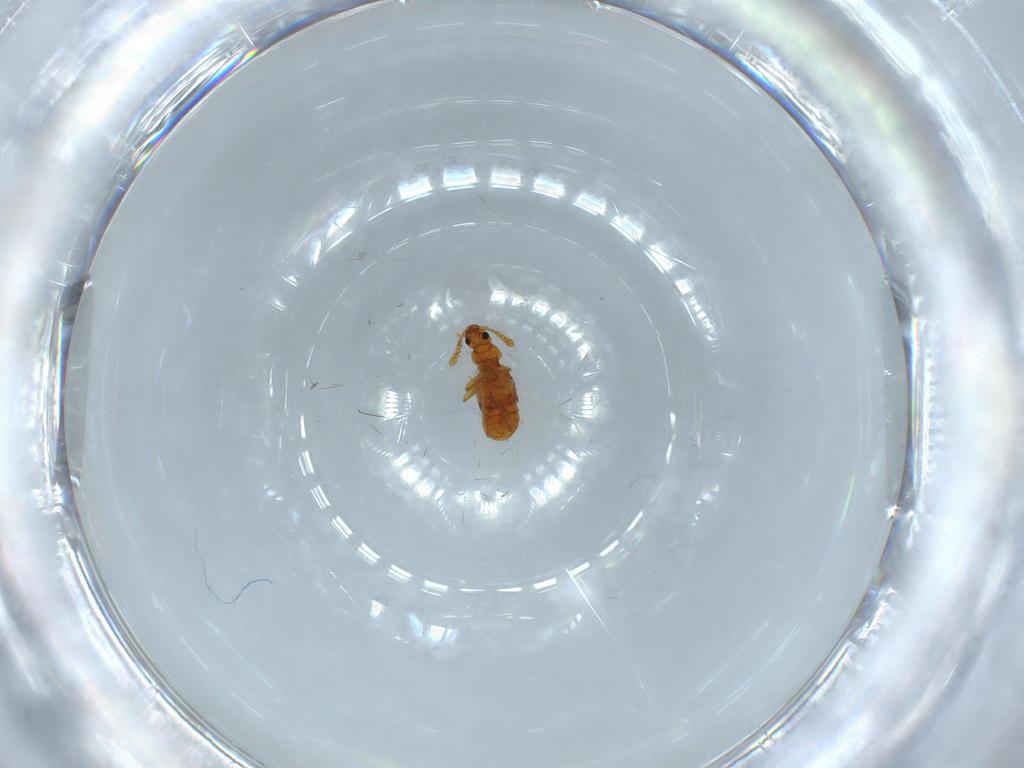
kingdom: Animalia
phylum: Arthropoda
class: Insecta
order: Coleoptera
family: Staphylinidae
